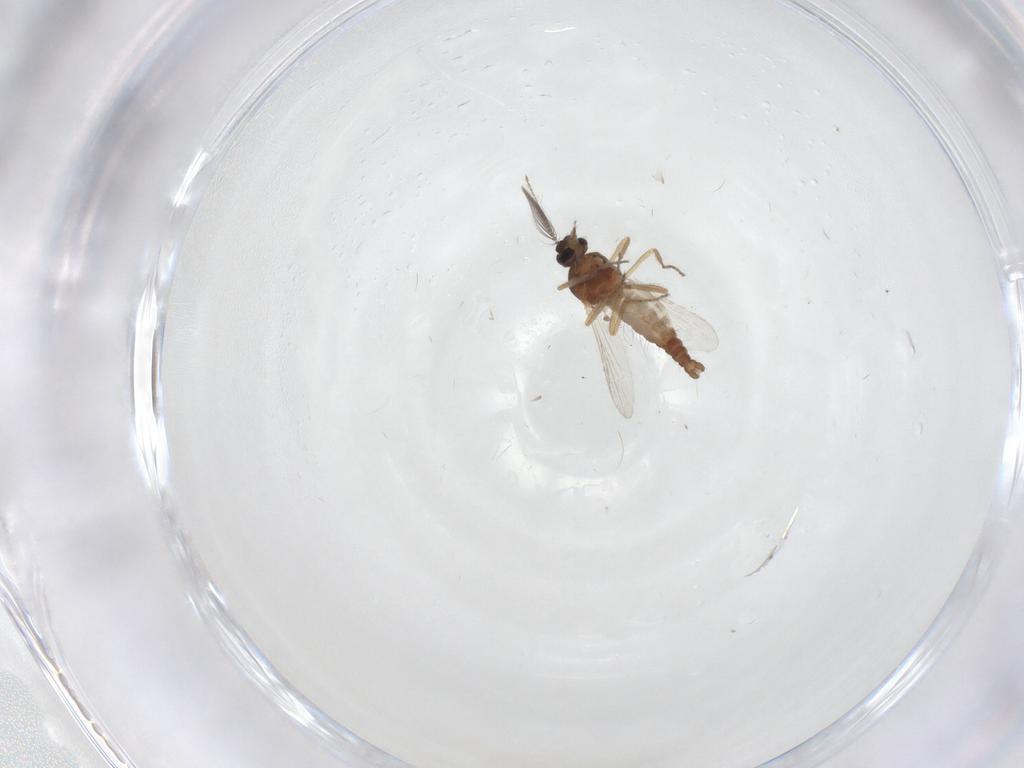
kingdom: Animalia
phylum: Arthropoda
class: Insecta
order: Diptera
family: Ceratopogonidae
